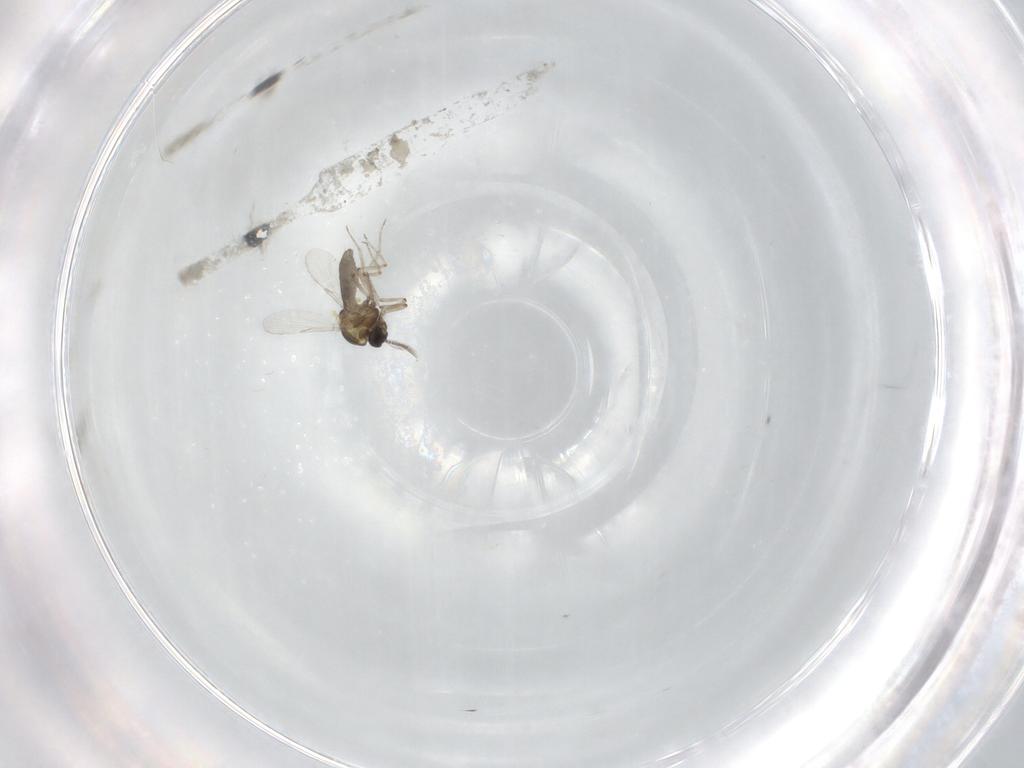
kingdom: Animalia
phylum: Arthropoda
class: Insecta
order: Diptera
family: Ceratopogonidae
